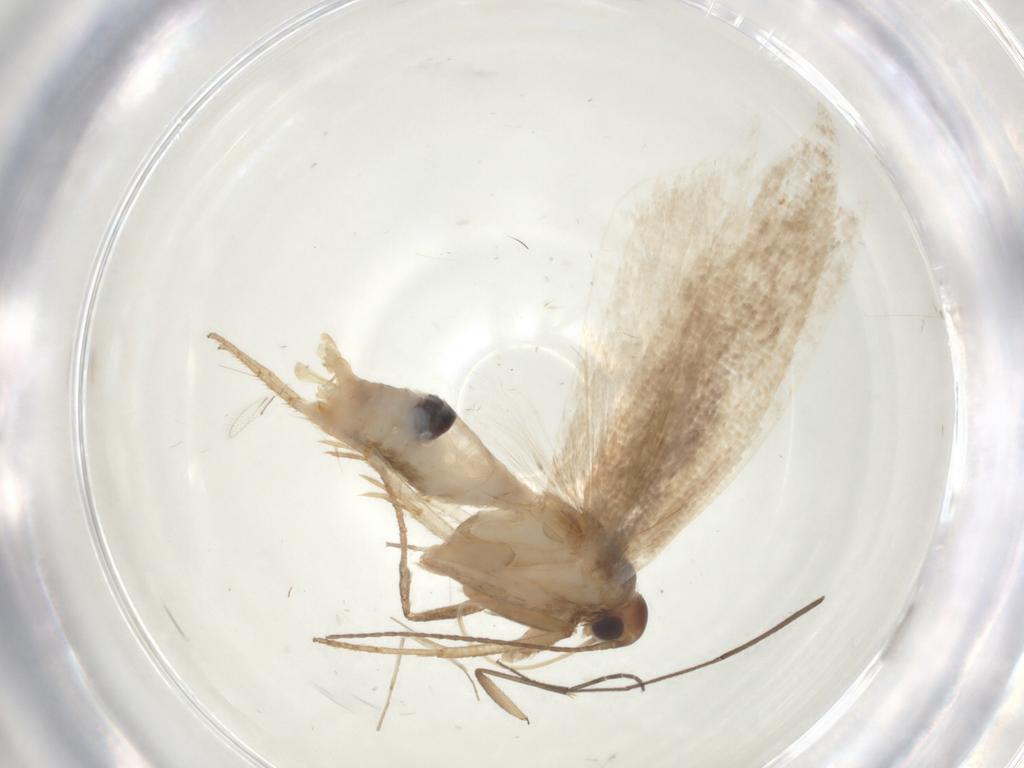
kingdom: Animalia
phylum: Arthropoda
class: Insecta
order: Lepidoptera
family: Gelechiidae
